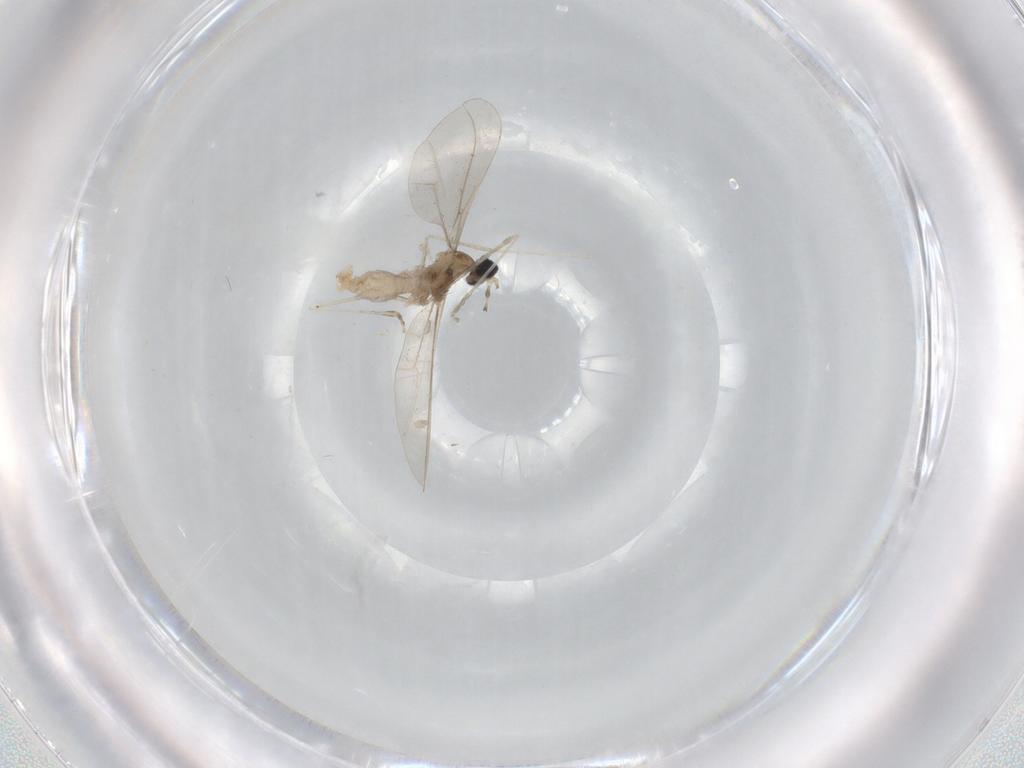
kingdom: Animalia
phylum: Arthropoda
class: Insecta
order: Diptera
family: Cecidomyiidae
